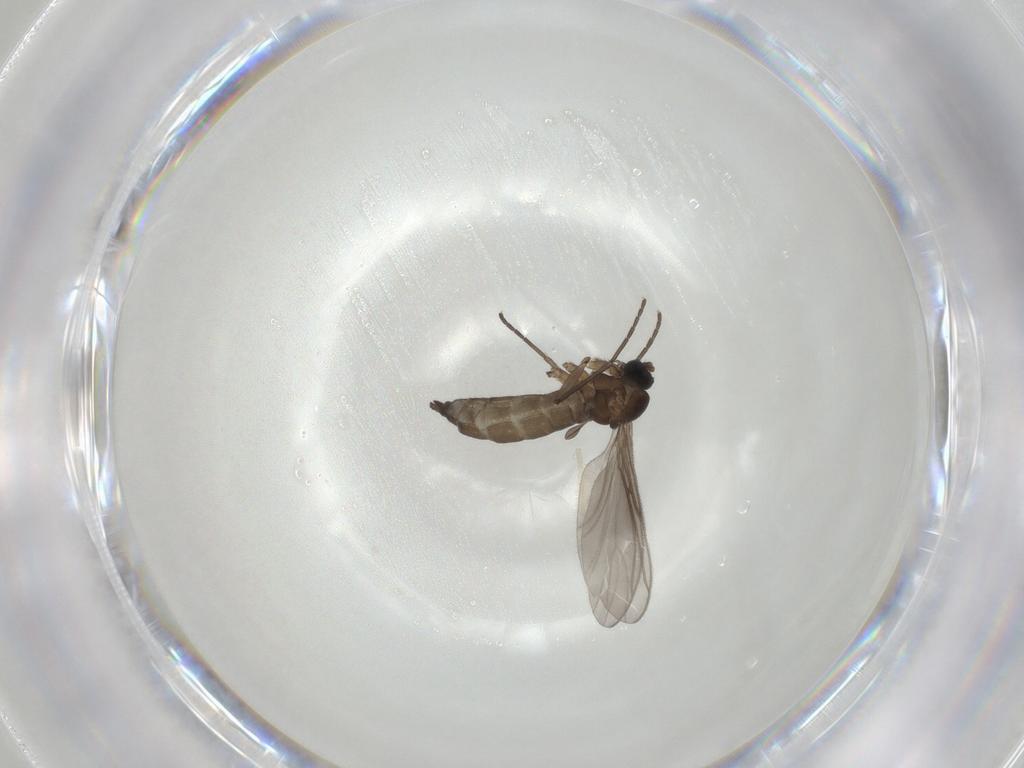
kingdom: Animalia
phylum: Arthropoda
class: Insecta
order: Diptera
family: Sciaridae
